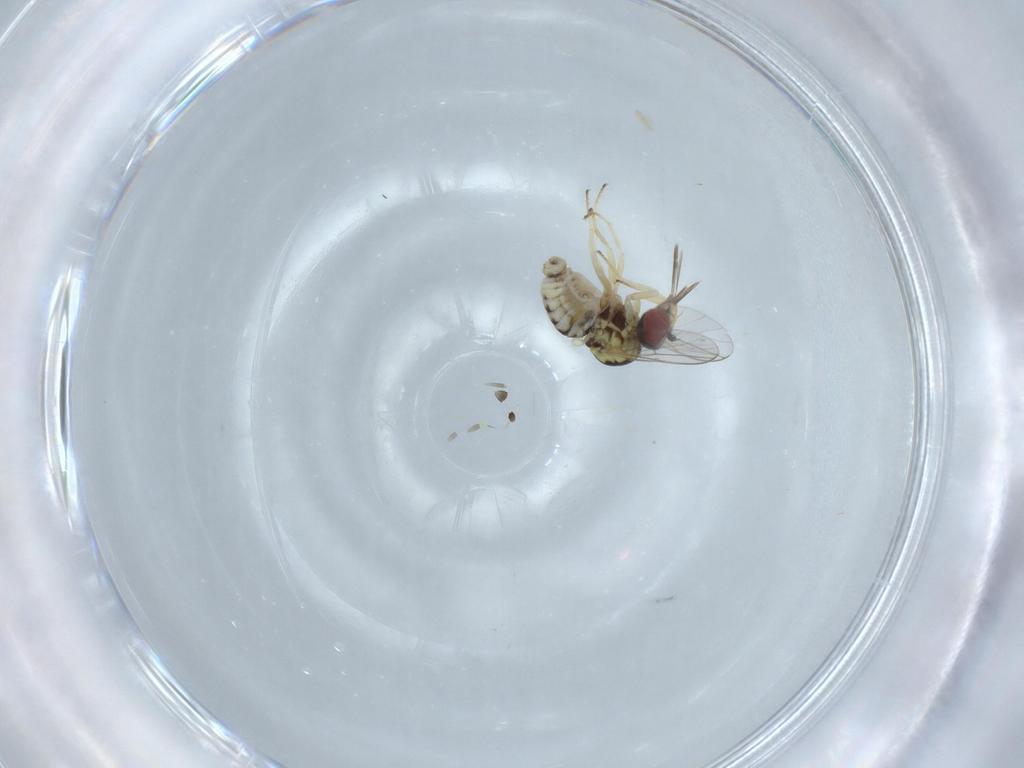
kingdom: Animalia
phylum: Arthropoda
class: Insecta
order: Diptera
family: Bombyliidae
